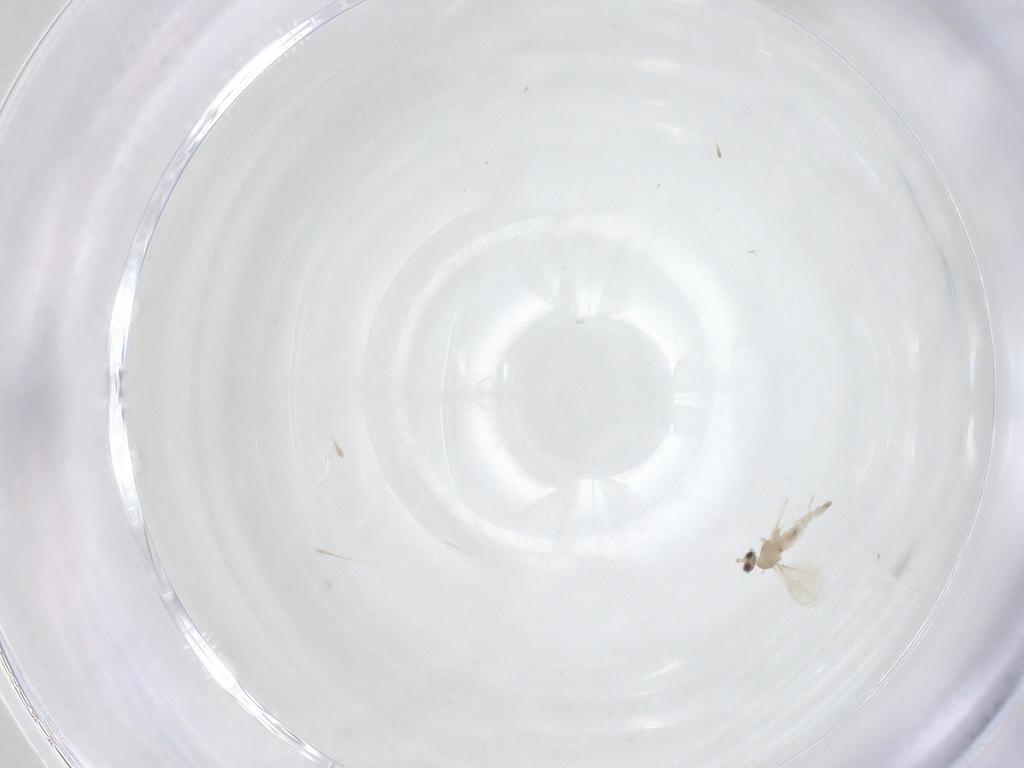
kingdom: Animalia
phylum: Arthropoda
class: Insecta
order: Diptera
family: Cecidomyiidae
